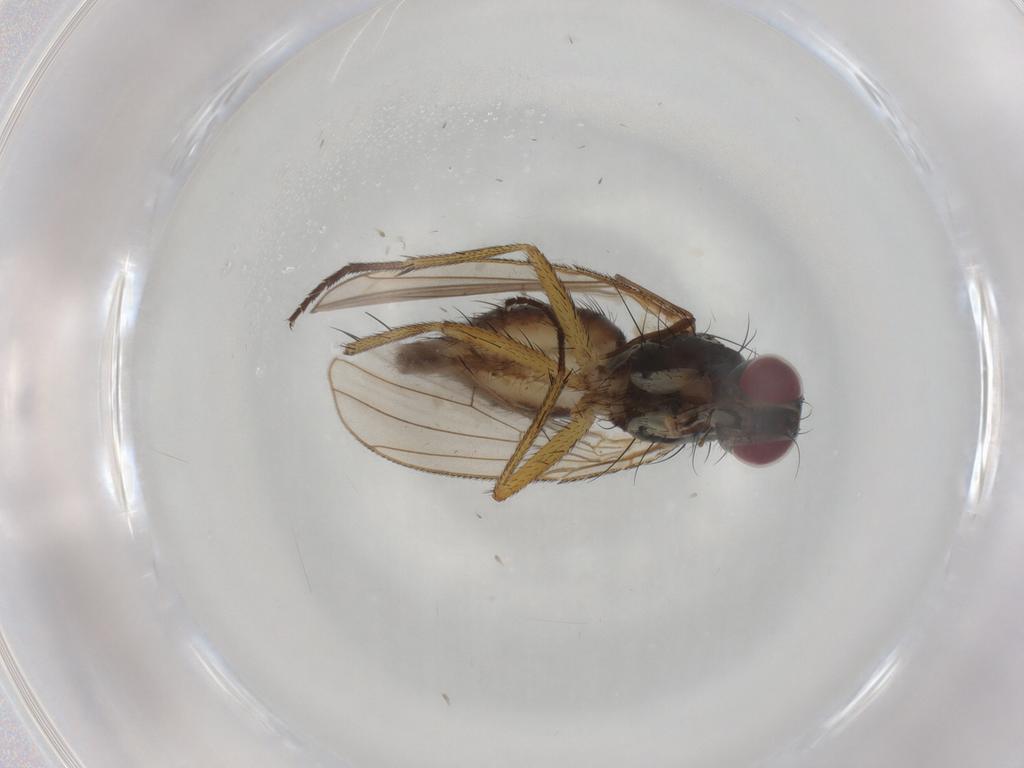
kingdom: Animalia
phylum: Arthropoda
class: Insecta
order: Diptera
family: Muscidae
